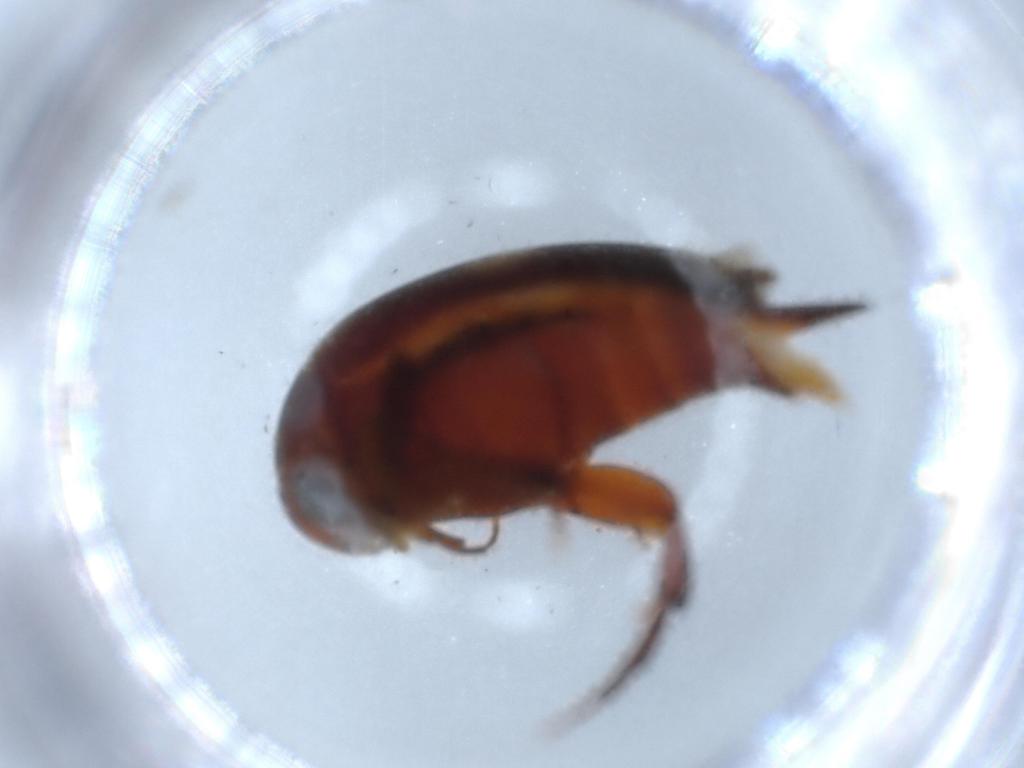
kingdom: Animalia
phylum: Arthropoda
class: Insecta
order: Coleoptera
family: Mordellidae
